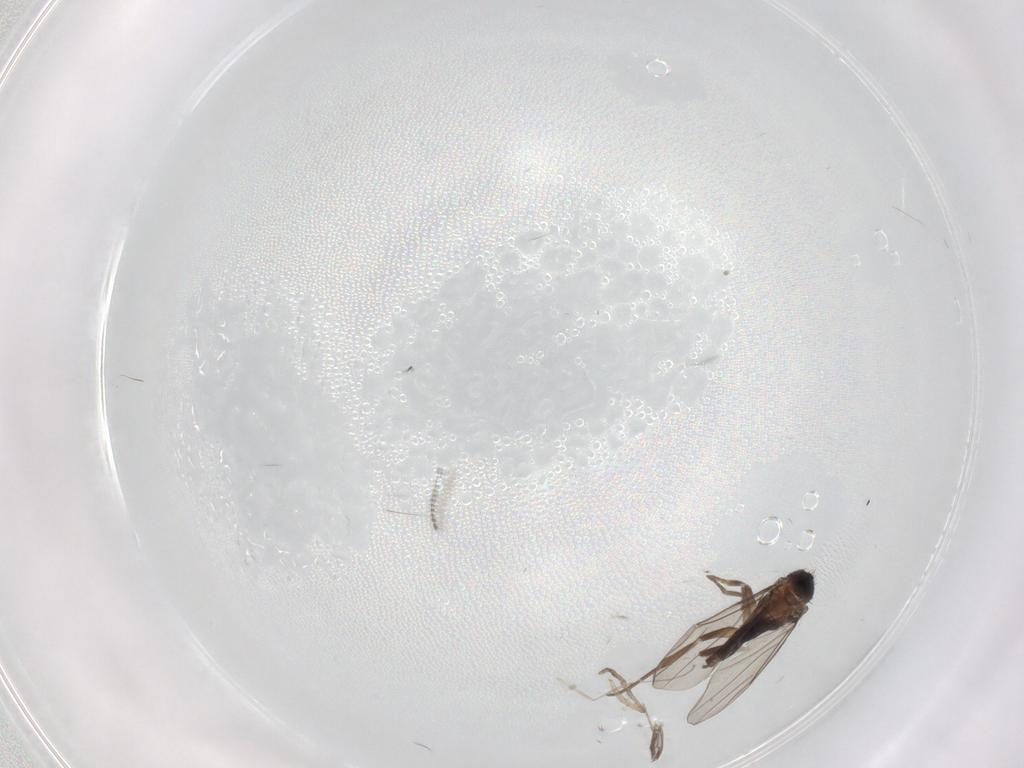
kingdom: Animalia
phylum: Arthropoda
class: Insecta
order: Diptera
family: Cecidomyiidae
